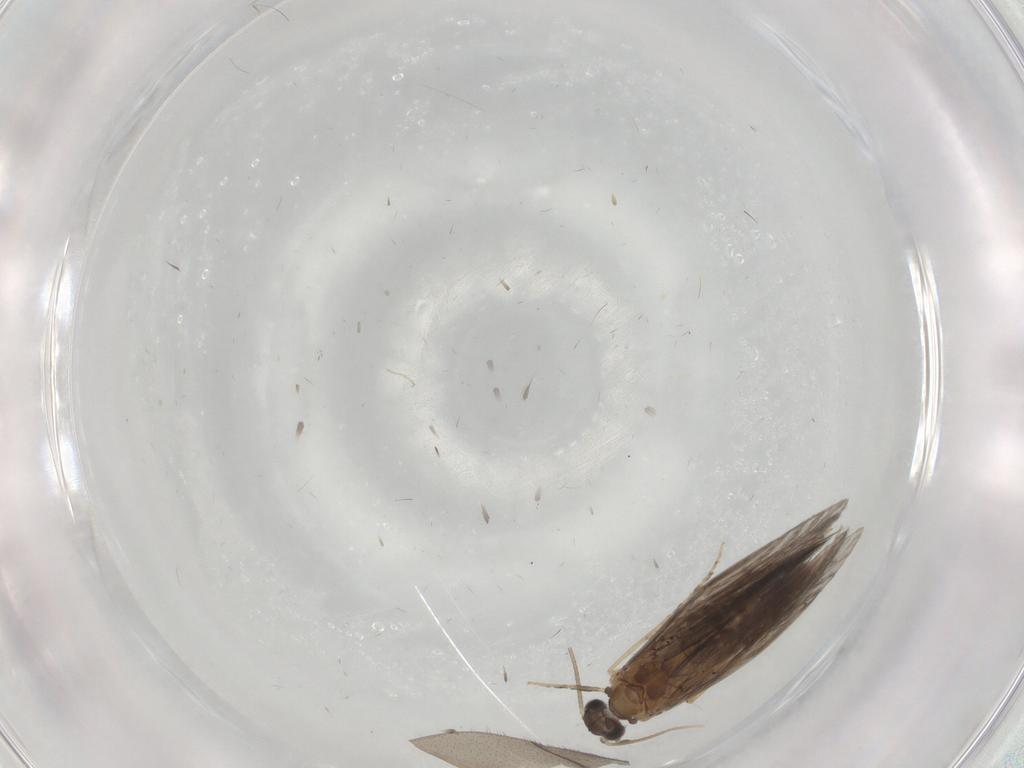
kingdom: Animalia
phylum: Arthropoda
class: Insecta
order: Trichoptera
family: Hydroptilidae
